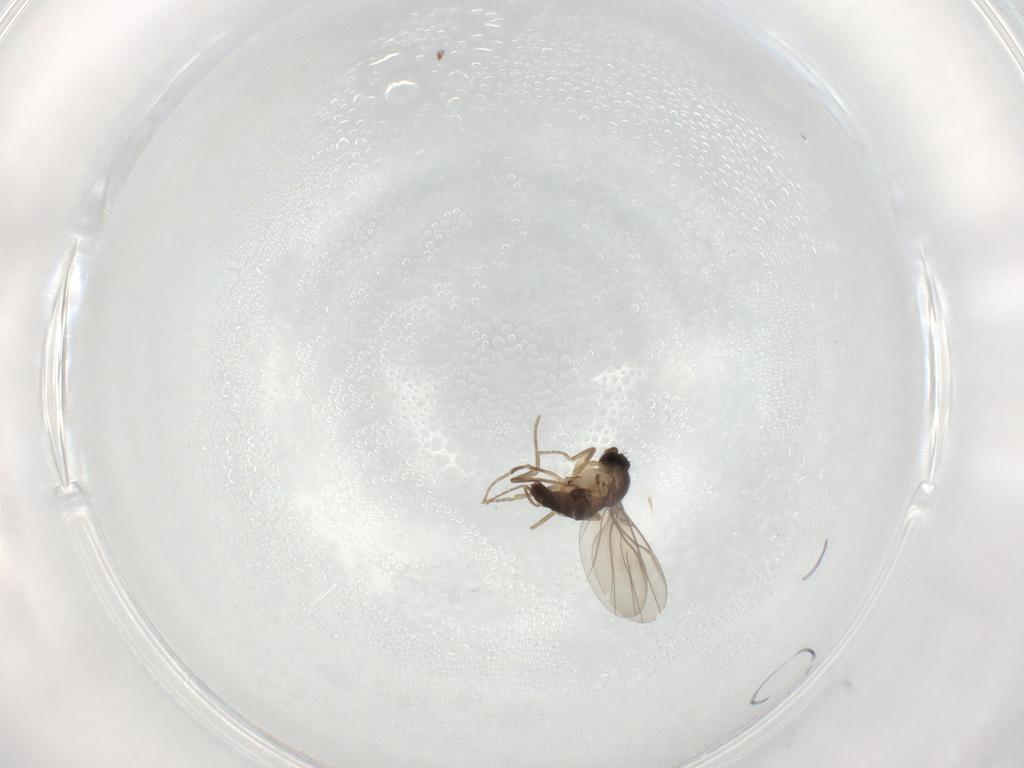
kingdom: Animalia
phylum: Arthropoda
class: Insecta
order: Diptera
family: Phoridae
